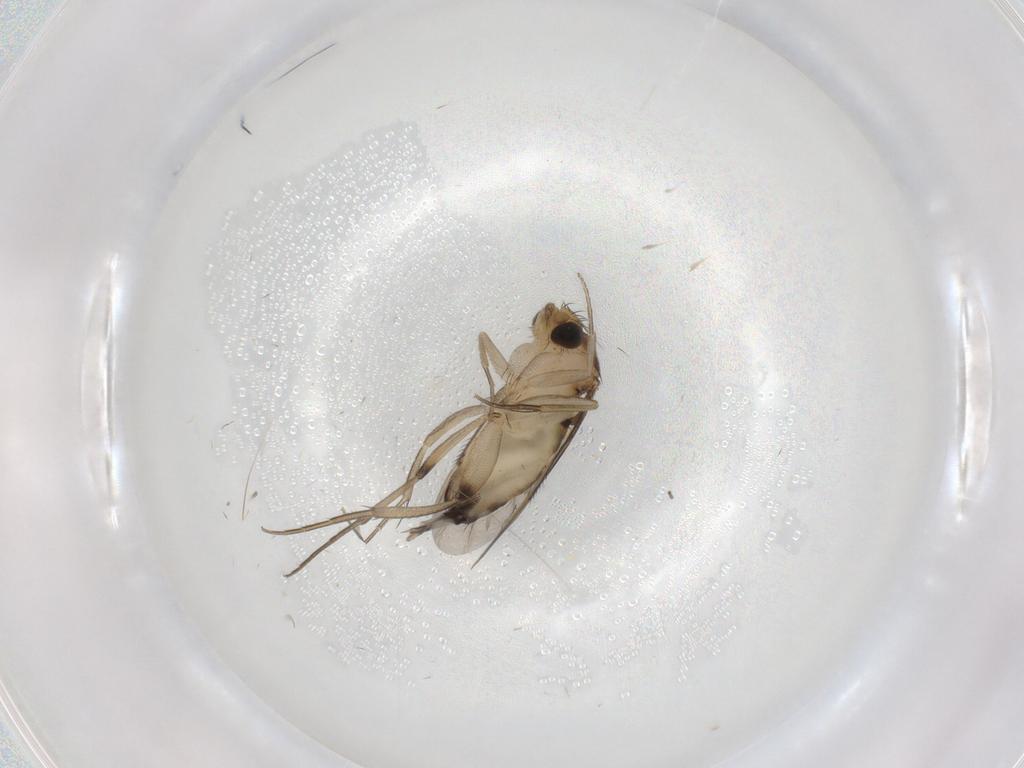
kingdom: Animalia
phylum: Arthropoda
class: Insecta
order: Diptera
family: Phoridae
